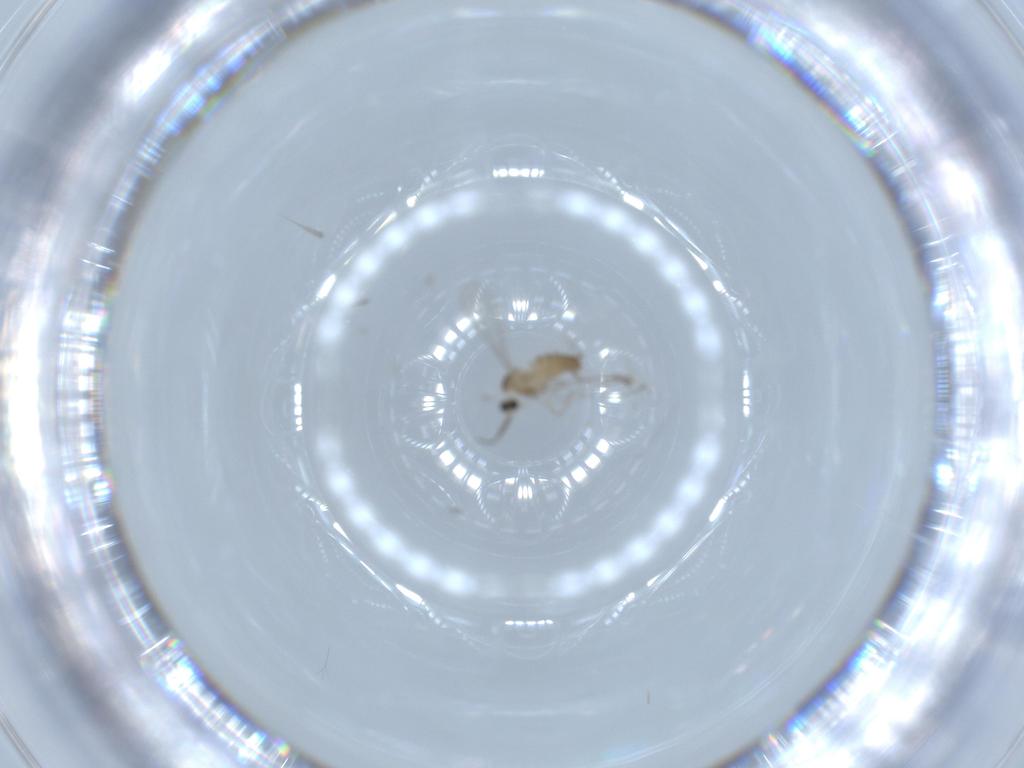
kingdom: Animalia
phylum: Arthropoda
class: Insecta
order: Diptera
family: Cecidomyiidae
